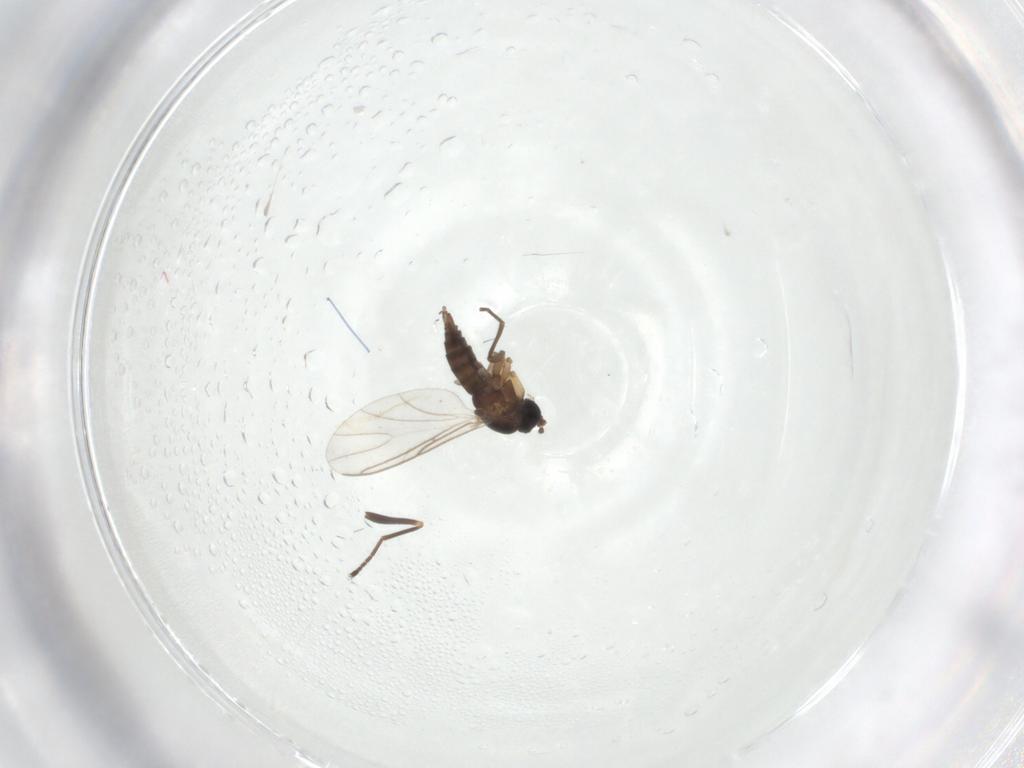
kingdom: Animalia
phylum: Arthropoda
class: Insecta
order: Diptera
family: Sciaridae
